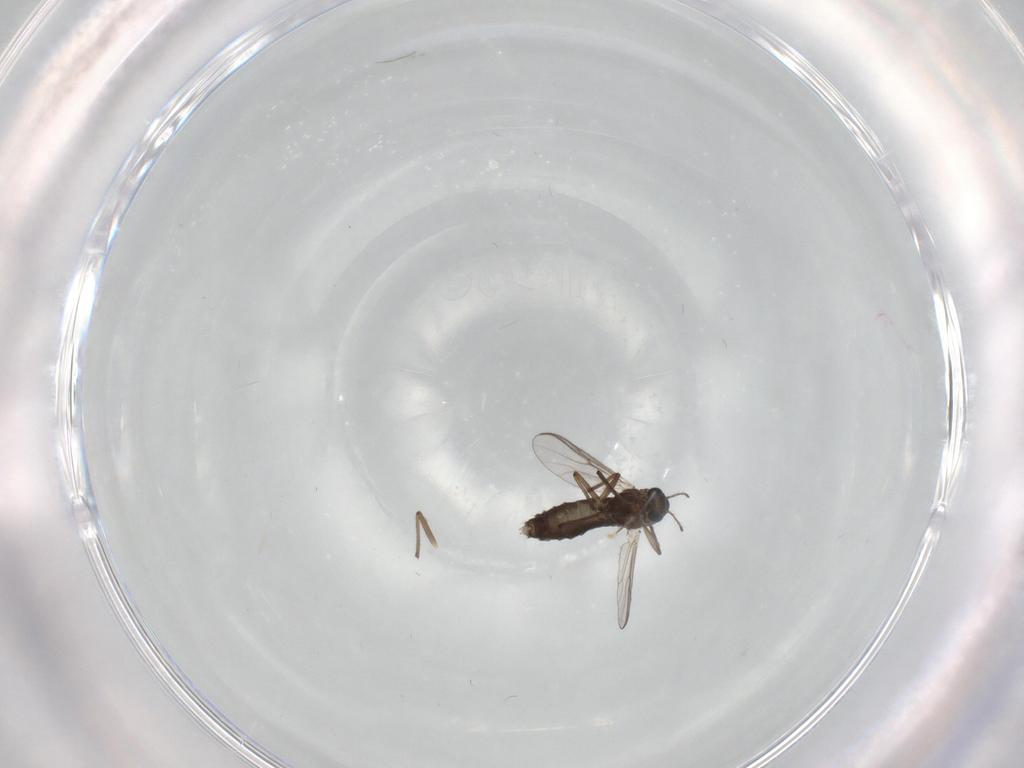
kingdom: Animalia
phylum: Arthropoda
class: Insecta
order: Diptera
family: Chironomidae
